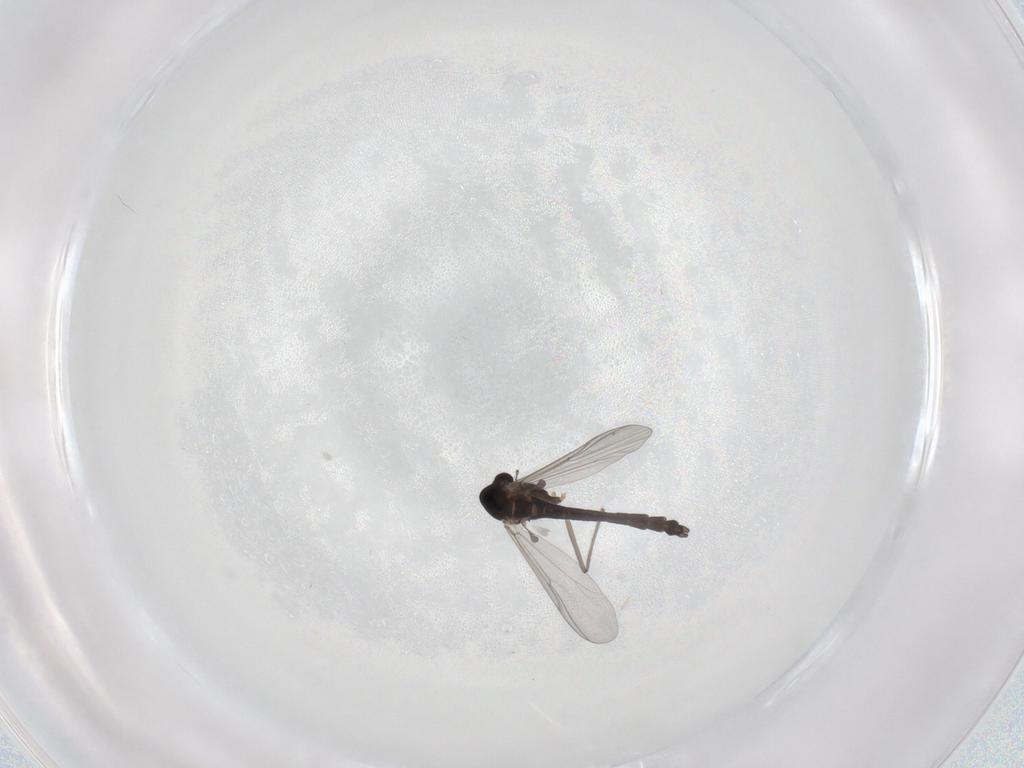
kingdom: Animalia
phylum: Arthropoda
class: Insecta
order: Diptera
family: Chironomidae
